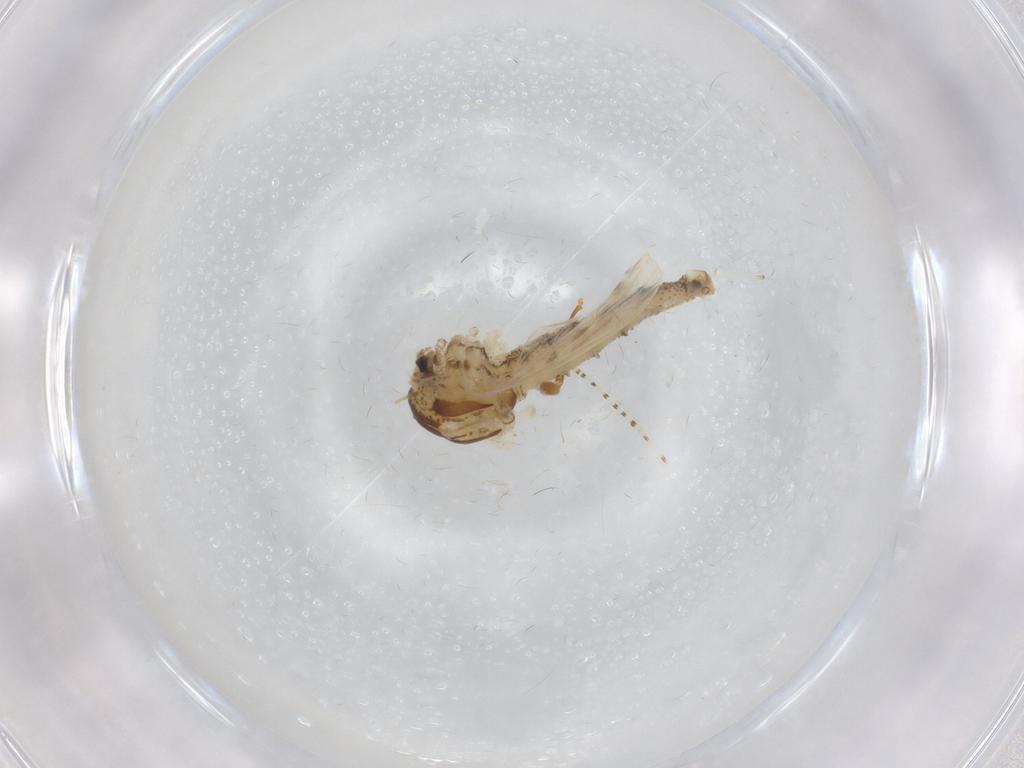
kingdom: Animalia
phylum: Arthropoda
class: Insecta
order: Diptera
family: Chaoboridae
